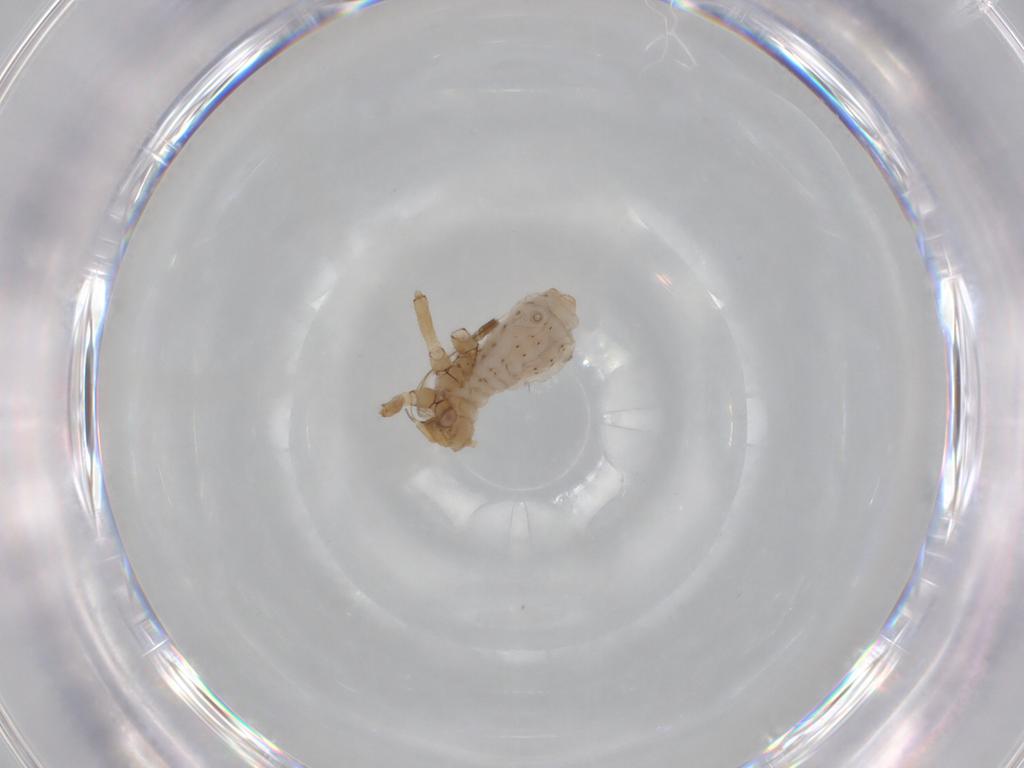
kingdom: Animalia
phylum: Arthropoda
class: Insecta
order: Hemiptera
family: Aphididae
